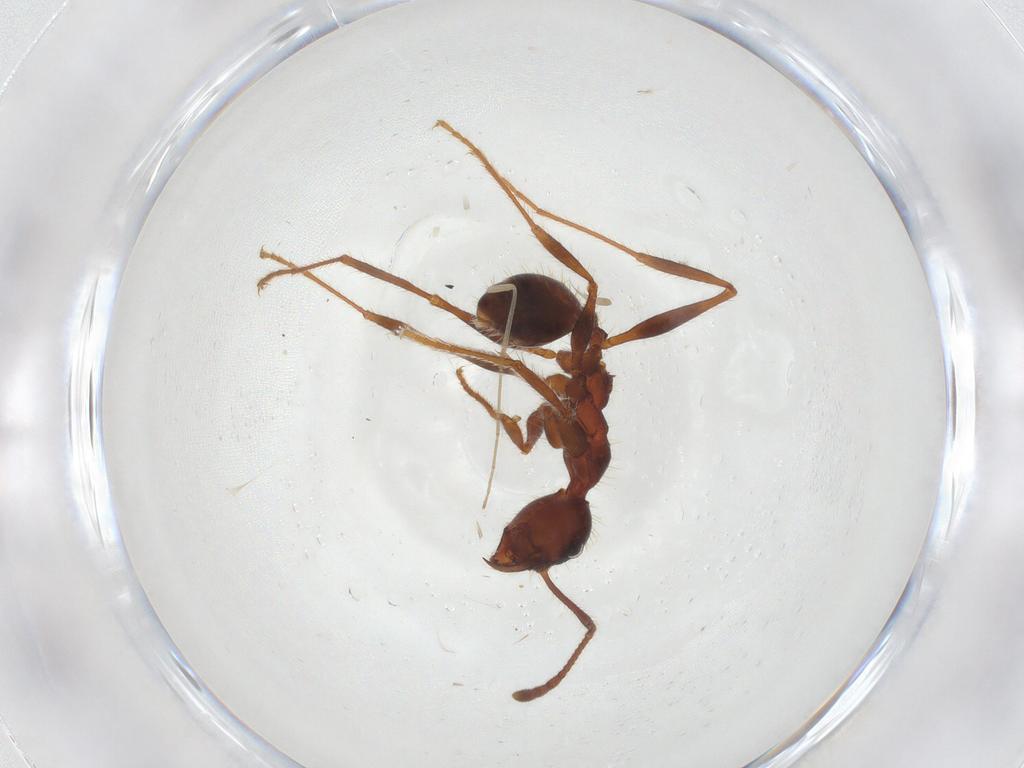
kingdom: Animalia
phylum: Arthropoda
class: Insecta
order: Hymenoptera
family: Formicidae
